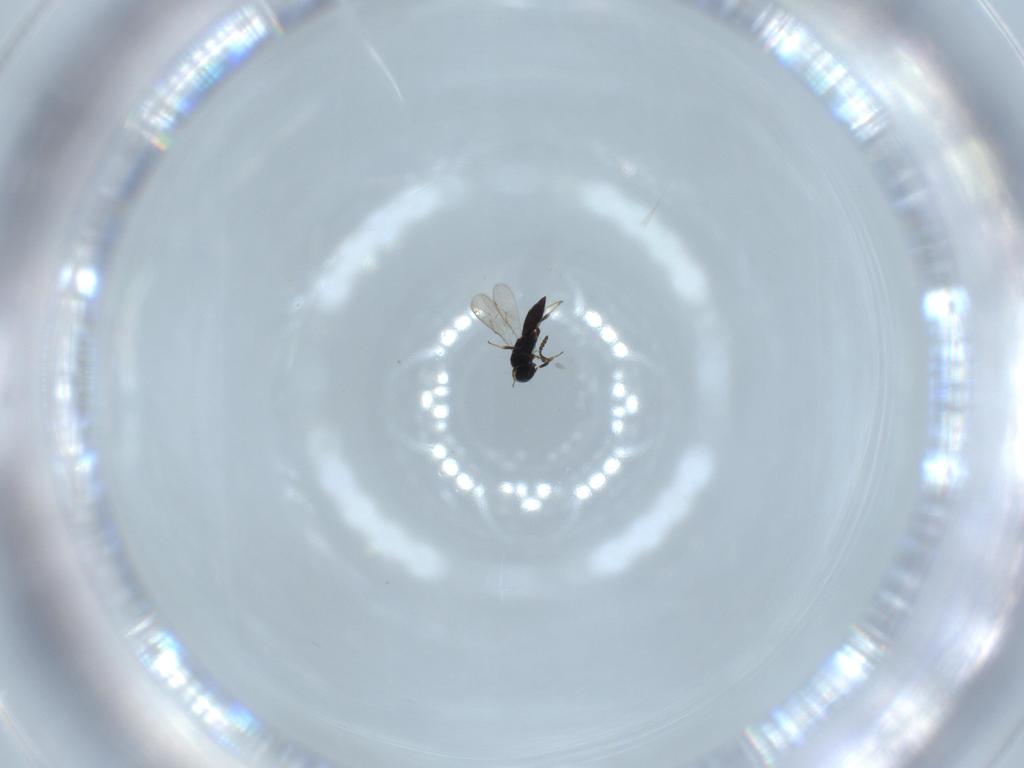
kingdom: Animalia
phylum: Arthropoda
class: Insecta
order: Hymenoptera
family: Scelionidae
